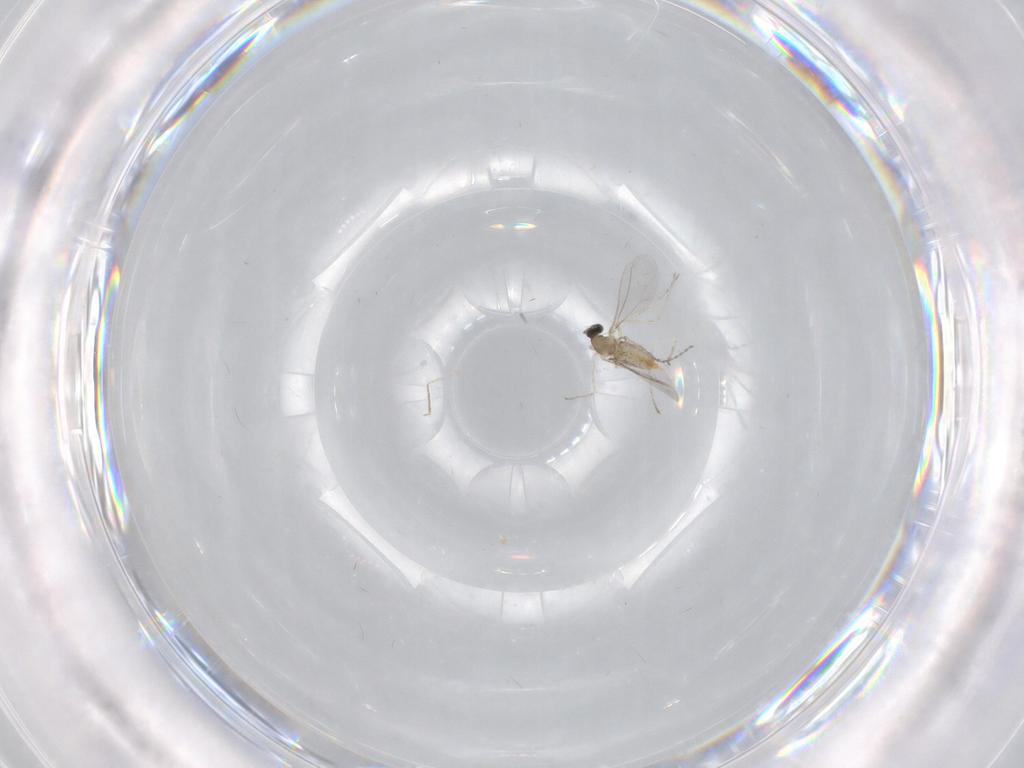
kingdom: Animalia
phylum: Arthropoda
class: Insecta
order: Diptera
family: Cecidomyiidae
